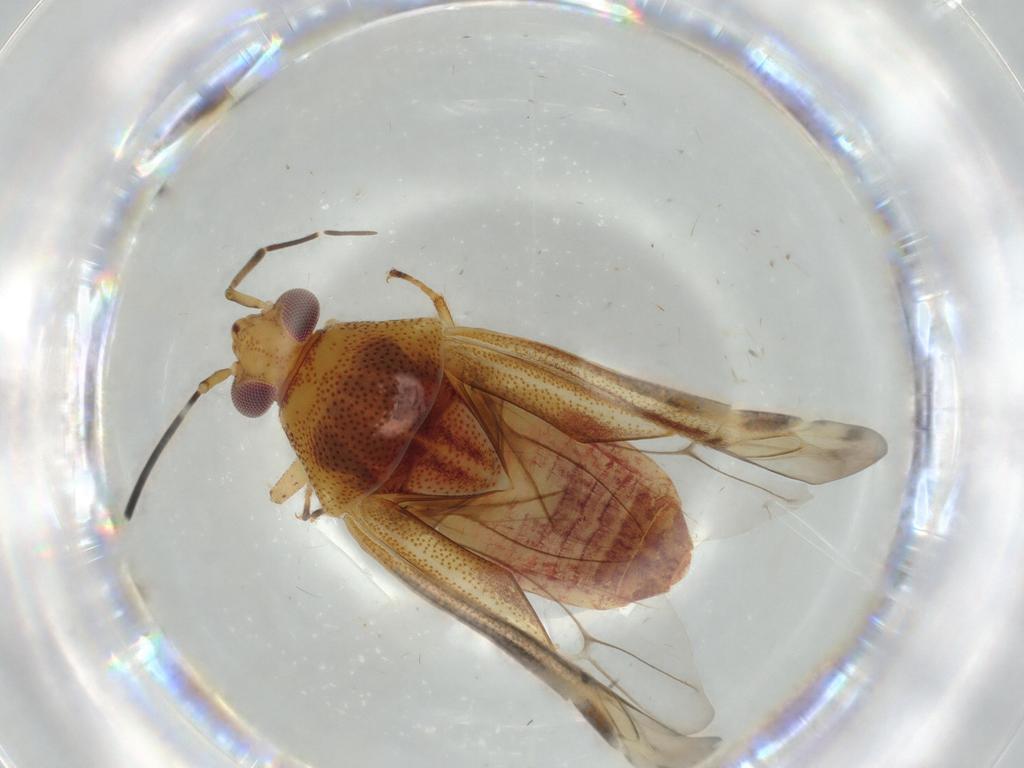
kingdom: Animalia
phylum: Arthropoda
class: Insecta
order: Hemiptera
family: Miridae
